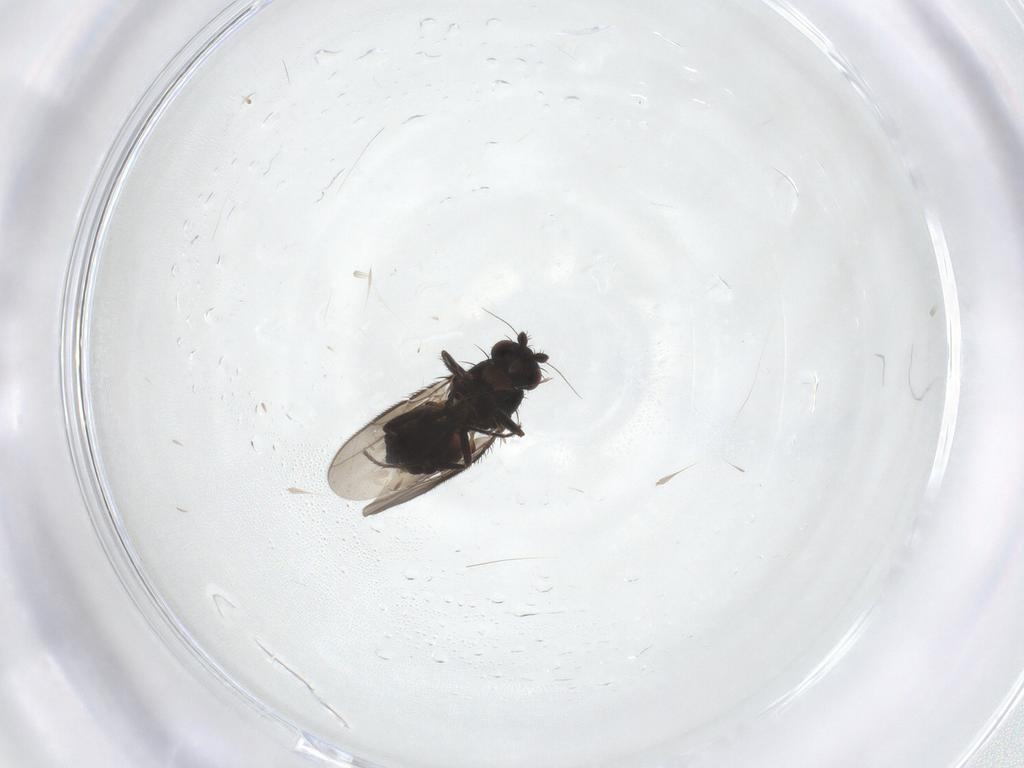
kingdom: Animalia
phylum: Arthropoda
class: Insecta
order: Diptera
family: Sphaeroceridae
